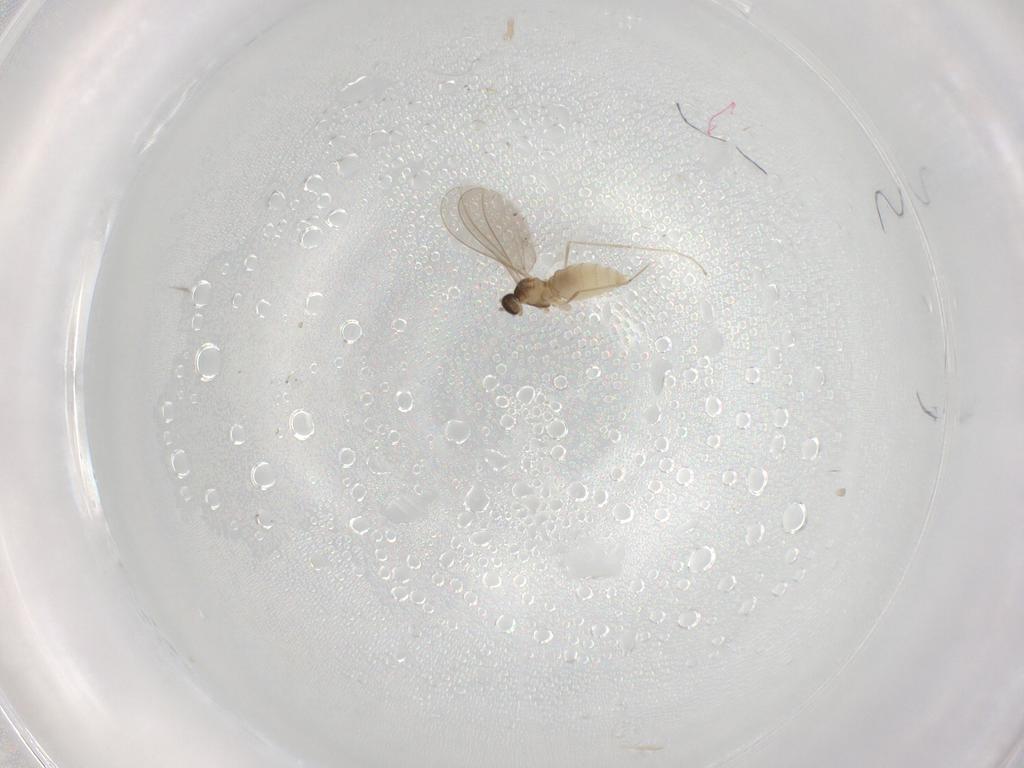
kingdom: Animalia
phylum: Arthropoda
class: Insecta
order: Diptera
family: Cecidomyiidae
